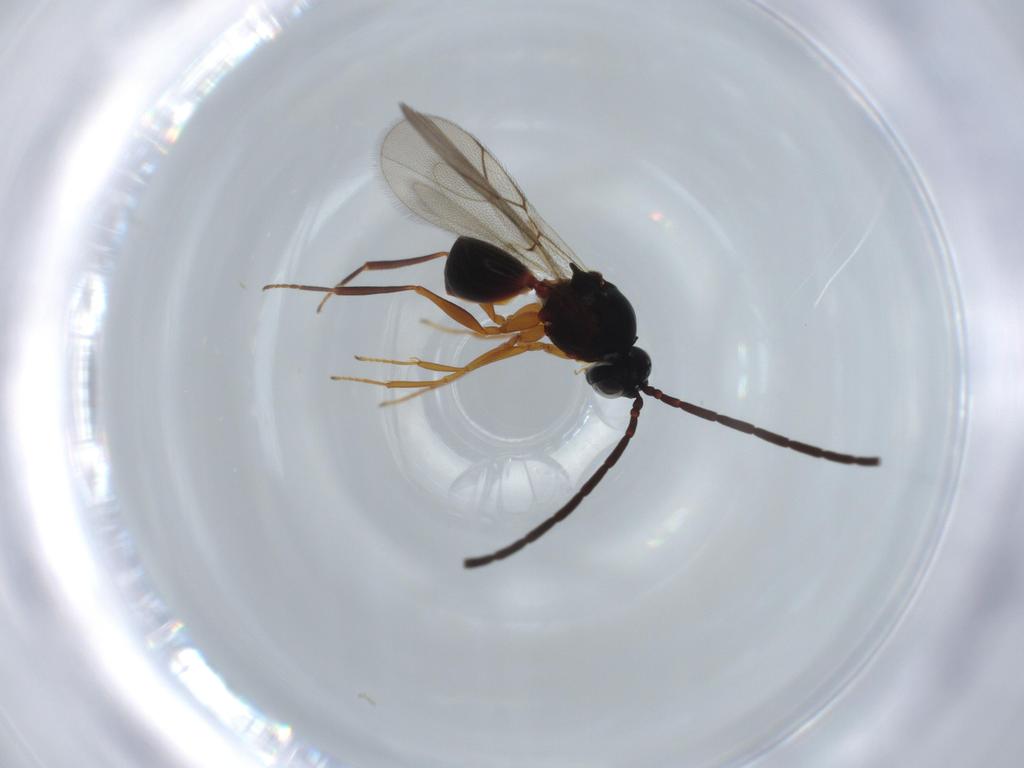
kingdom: Animalia
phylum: Arthropoda
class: Insecta
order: Hymenoptera
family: Figitidae
